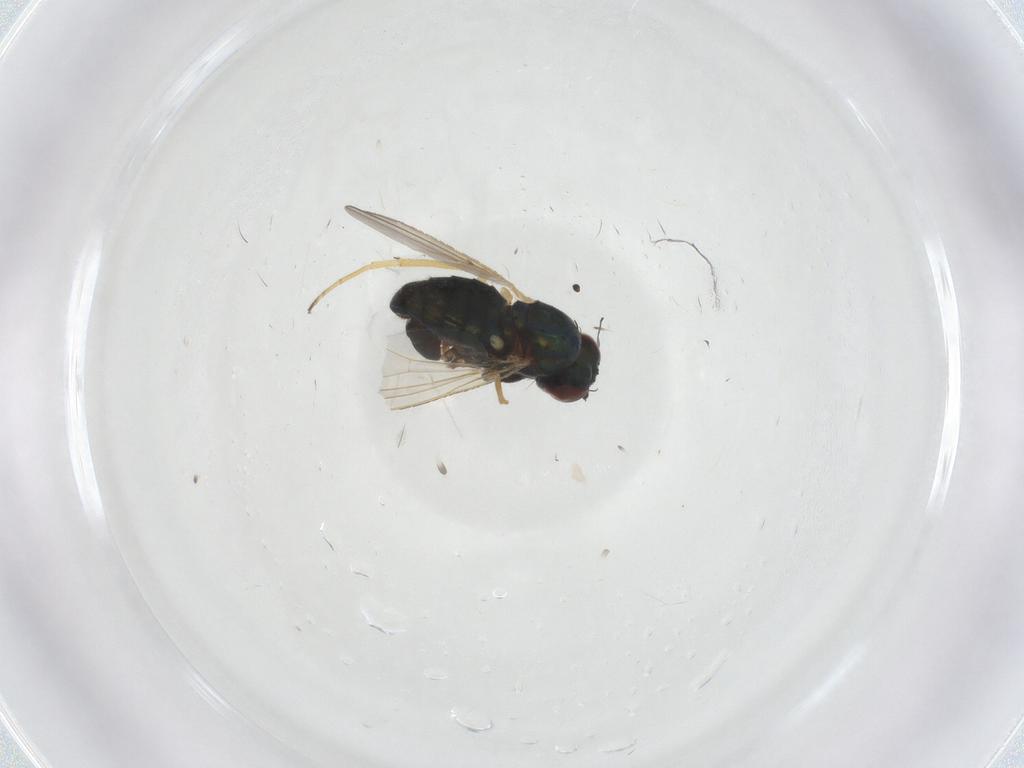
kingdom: Animalia
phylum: Arthropoda
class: Insecta
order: Diptera
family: Dolichopodidae
